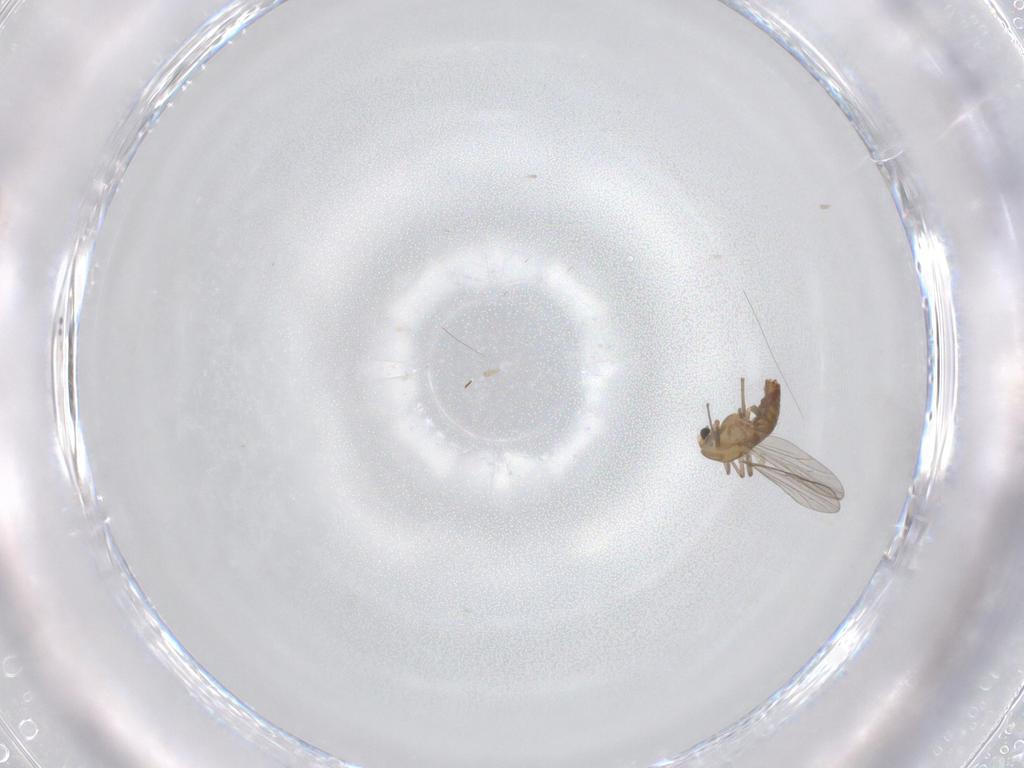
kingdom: Animalia
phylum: Arthropoda
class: Insecta
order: Diptera
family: Chironomidae
